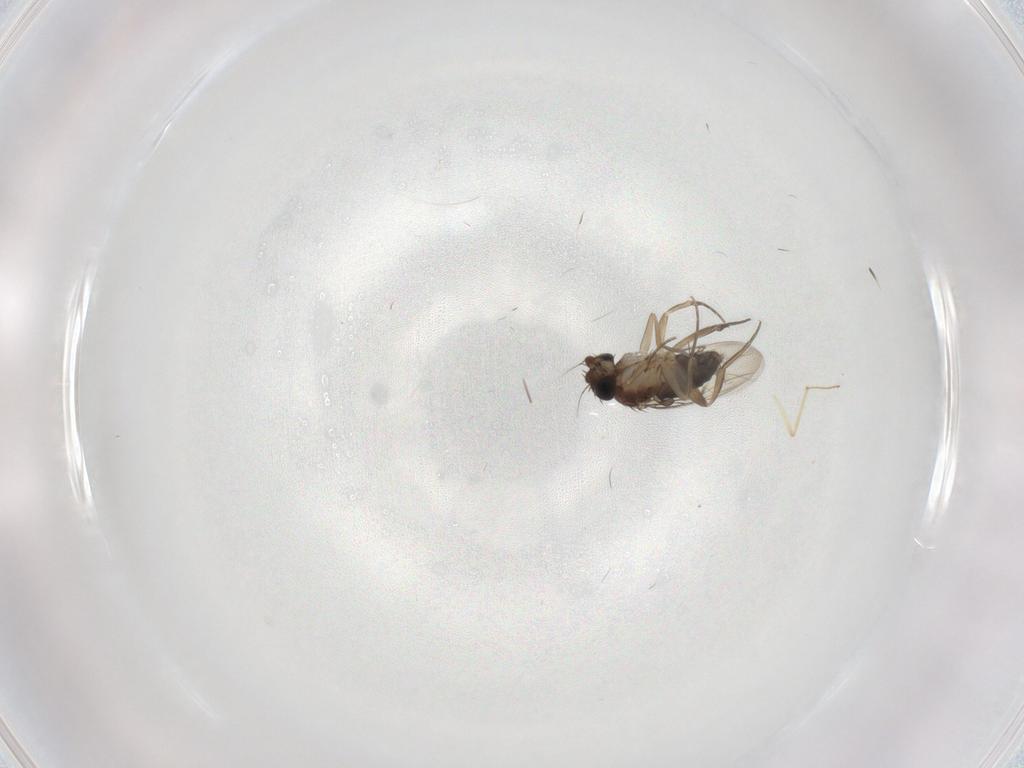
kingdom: Animalia
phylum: Arthropoda
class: Insecta
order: Diptera
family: Phoridae
